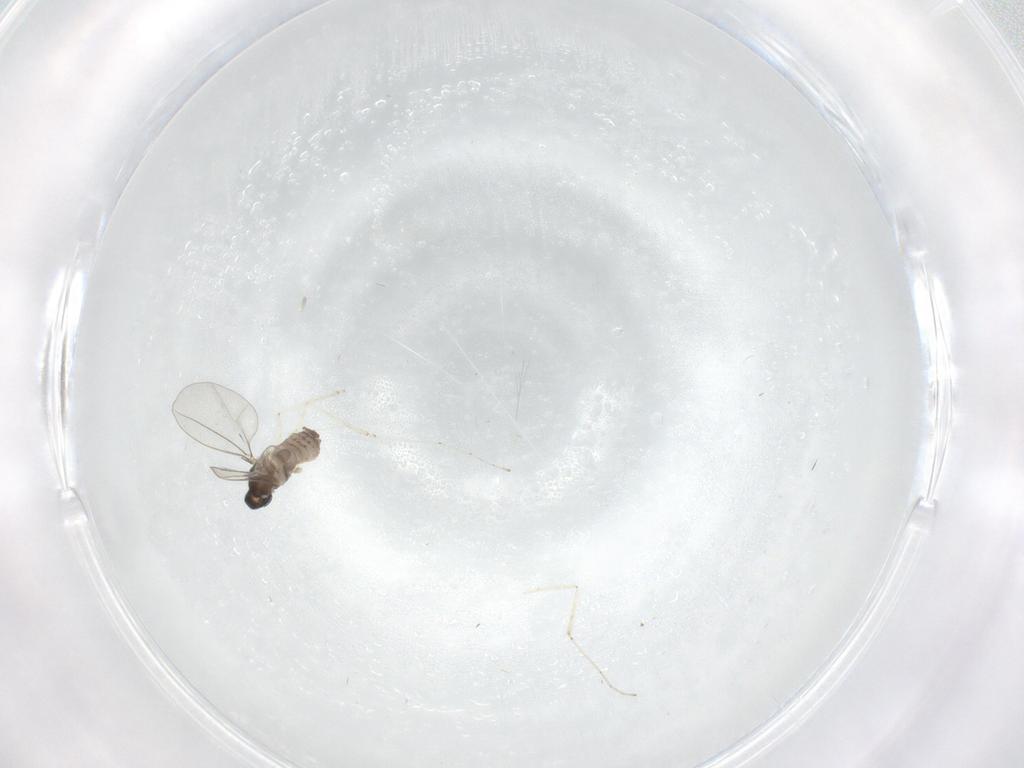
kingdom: Animalia
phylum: Arthropoda
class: Insecta
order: Diptera
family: Cecidomyiidae
